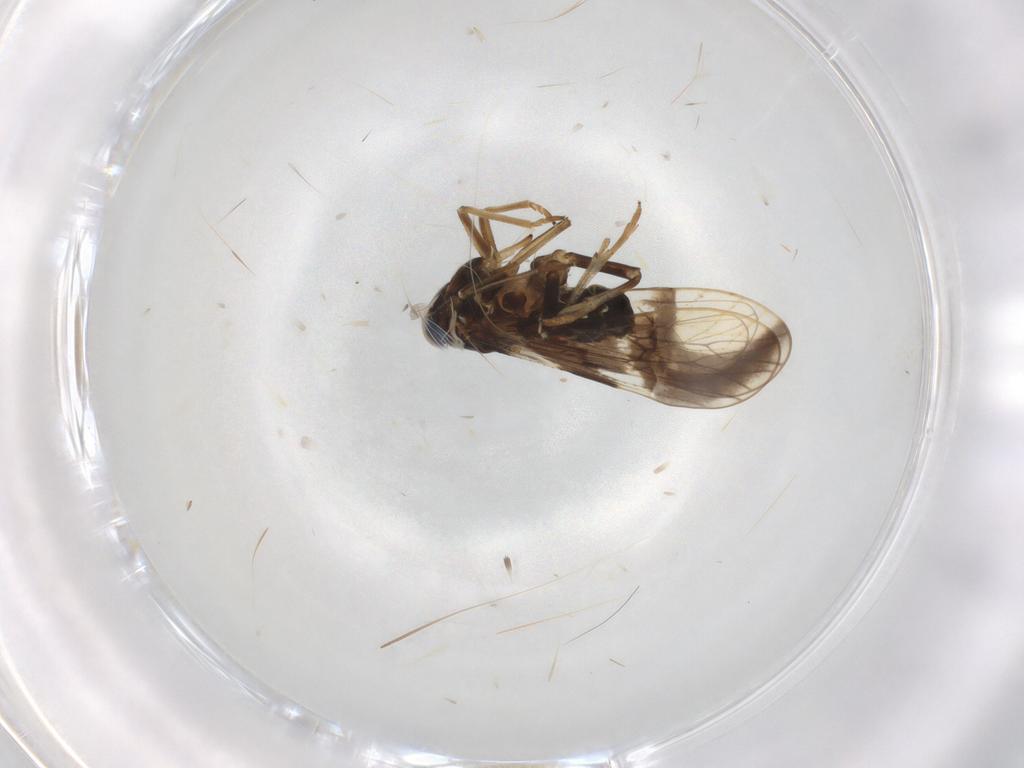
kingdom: Animalia
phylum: Arthropoda
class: Insecta
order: Hemiptera
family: Delphacidae
